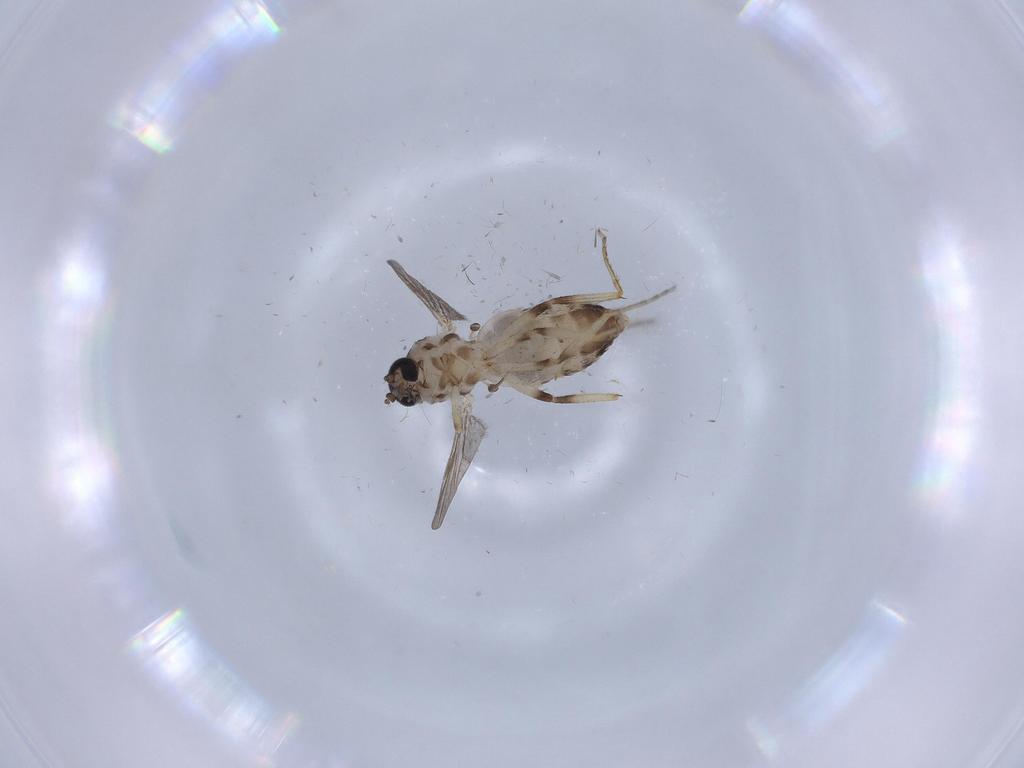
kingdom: Animalia
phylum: Arthropoda
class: Insecta
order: Diptera
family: Ceratopogonidae
